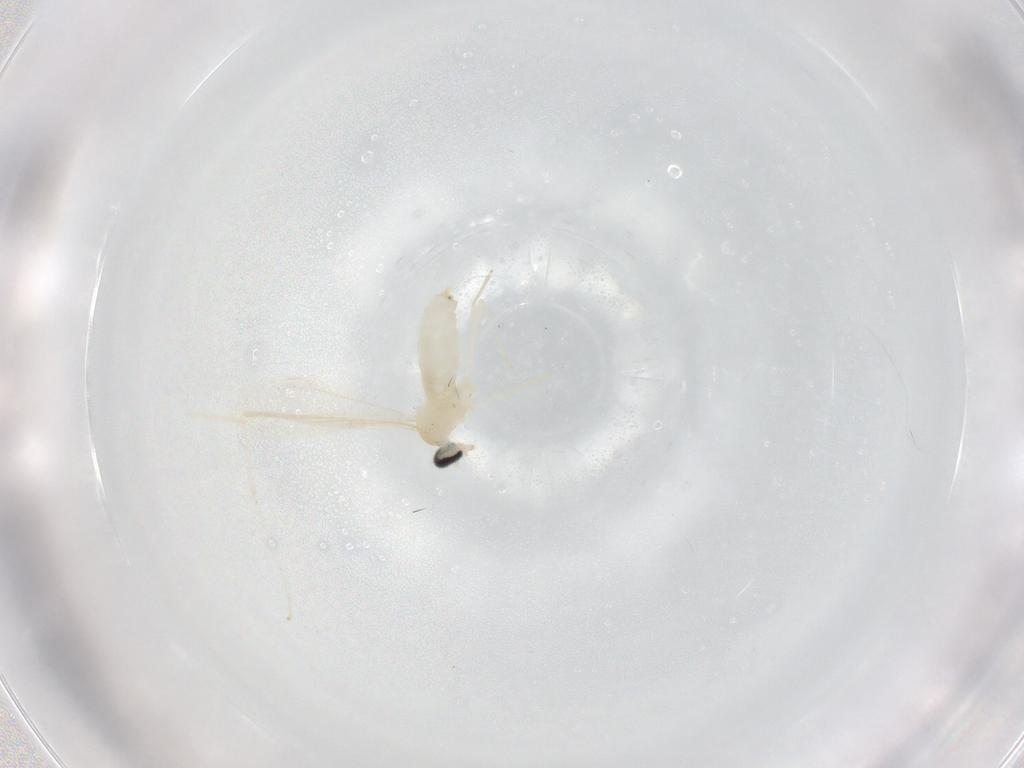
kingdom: Animalia
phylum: Arthropoda
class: Insecta
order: Diptera
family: Cecidomyiidae
